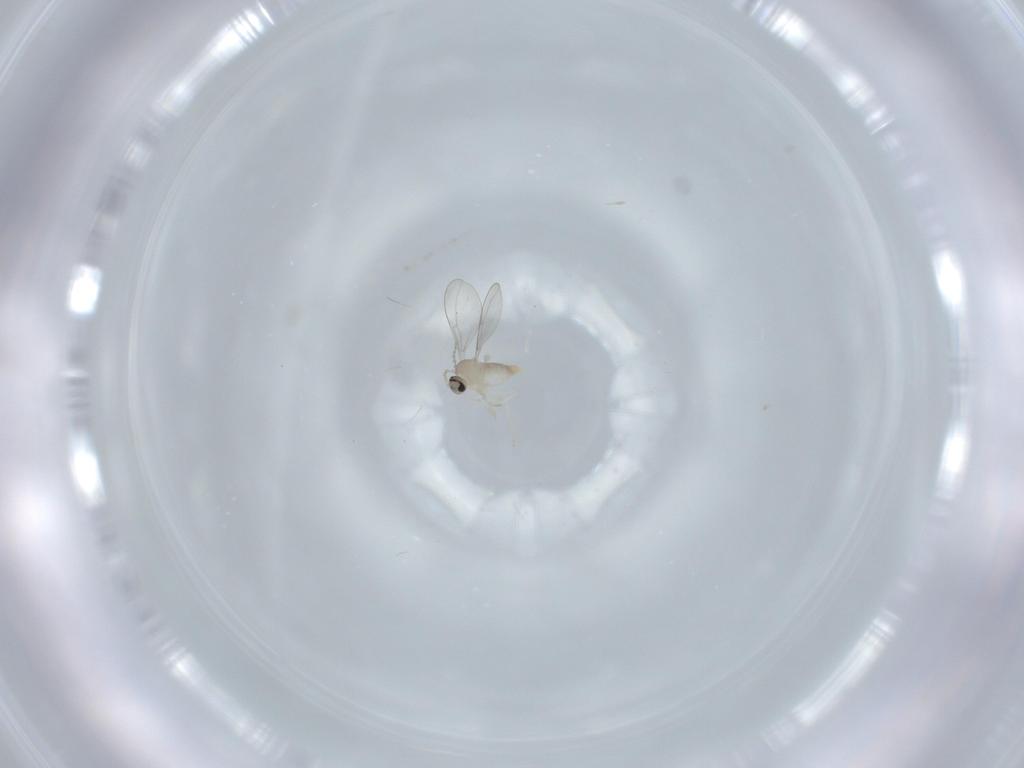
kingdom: Animalia
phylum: Arthropoda
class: Insecta
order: Diptera
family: Cecidomyiidae
